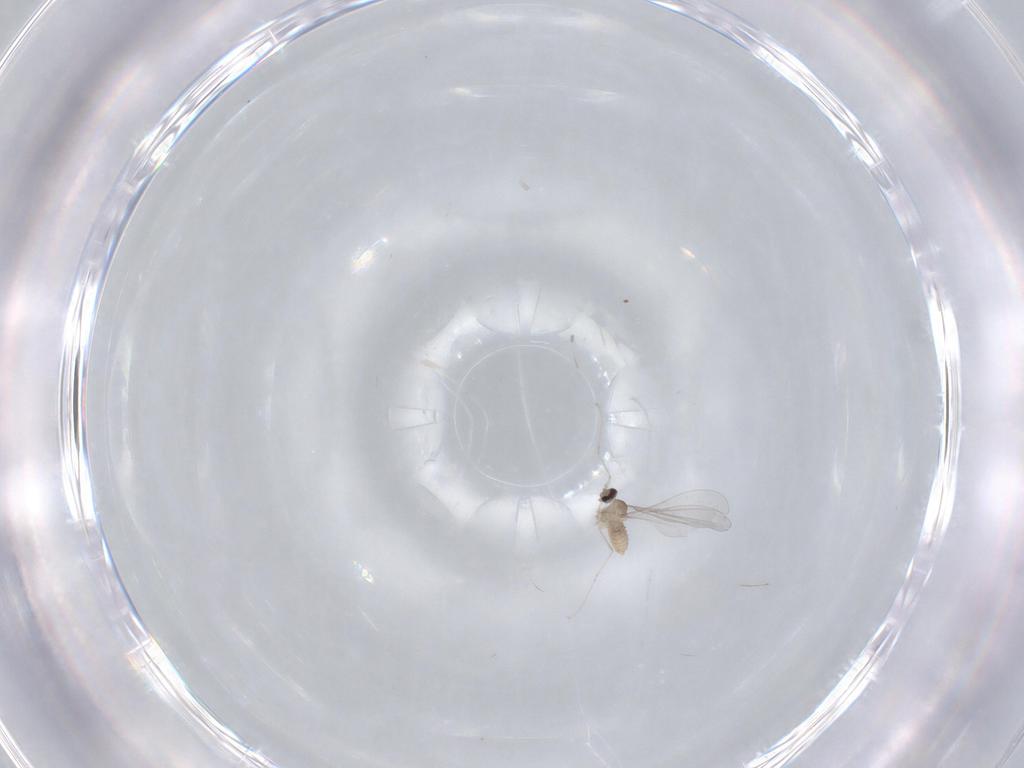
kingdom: Animalia
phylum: Arthropoda
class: Insecta
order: Diptera
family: Cecidomyiidae
